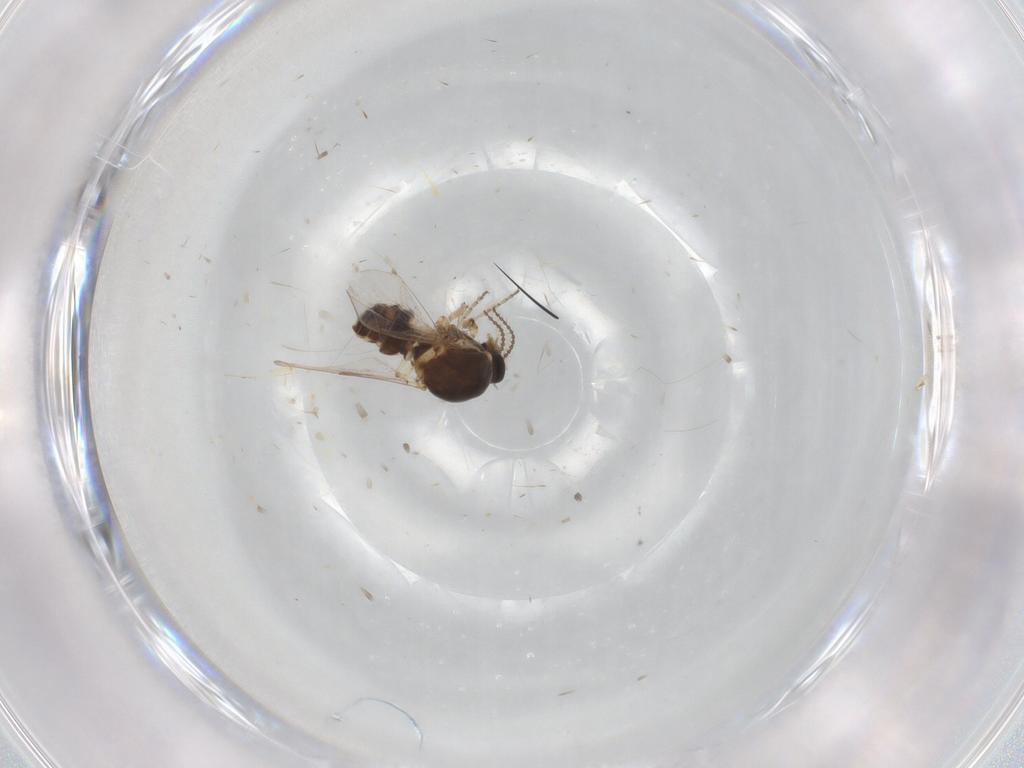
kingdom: Animalia
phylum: Arthropoda
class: Insecta
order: Diptera
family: Ceratopogonidae
